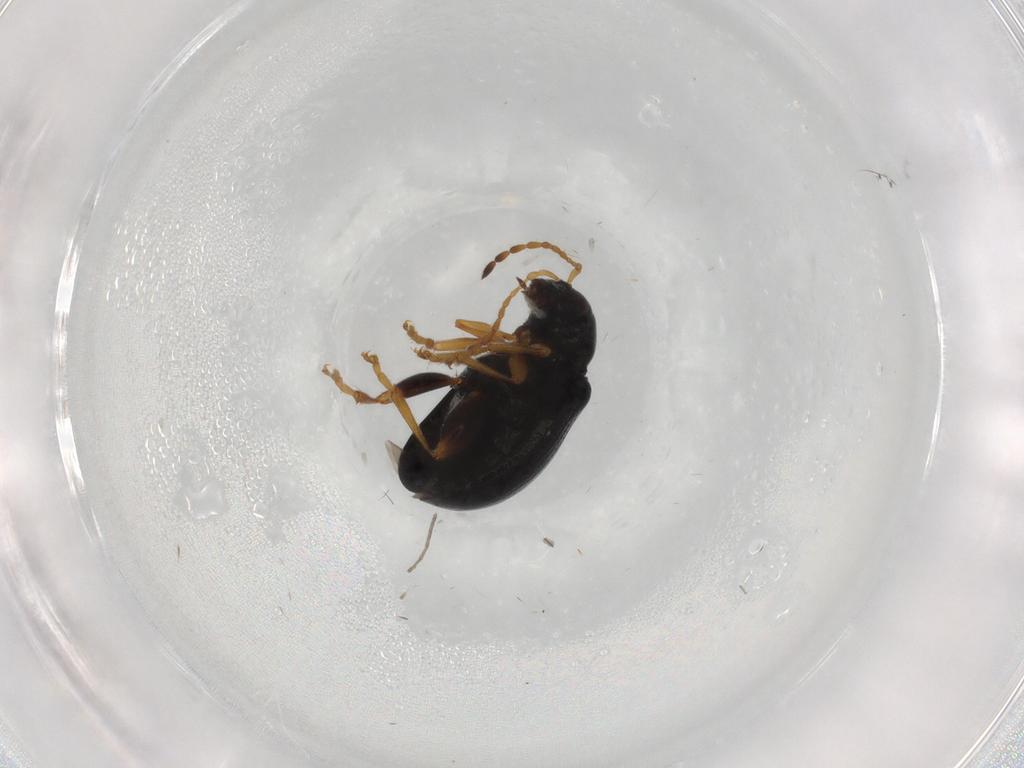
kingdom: Animalia
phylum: Arthropoda
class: Insecta
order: Coleoptera
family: Chrysomelidae
